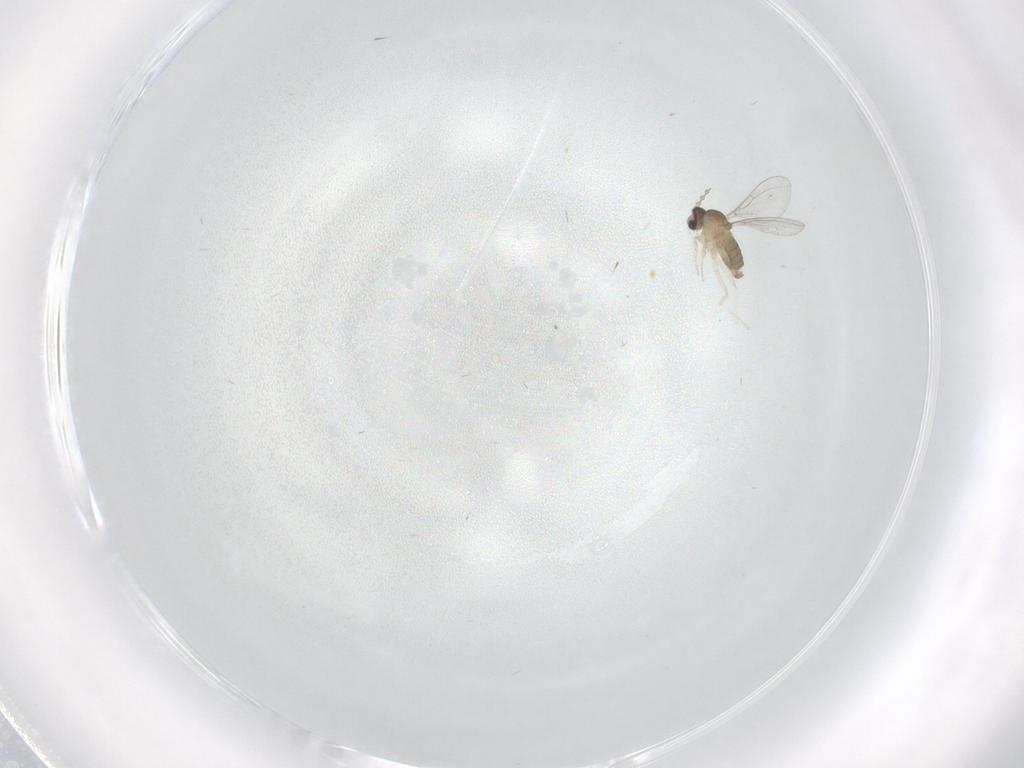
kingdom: Animalia
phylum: Arthropoda
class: Insecta
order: Diptera
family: Cecidomyiidae
